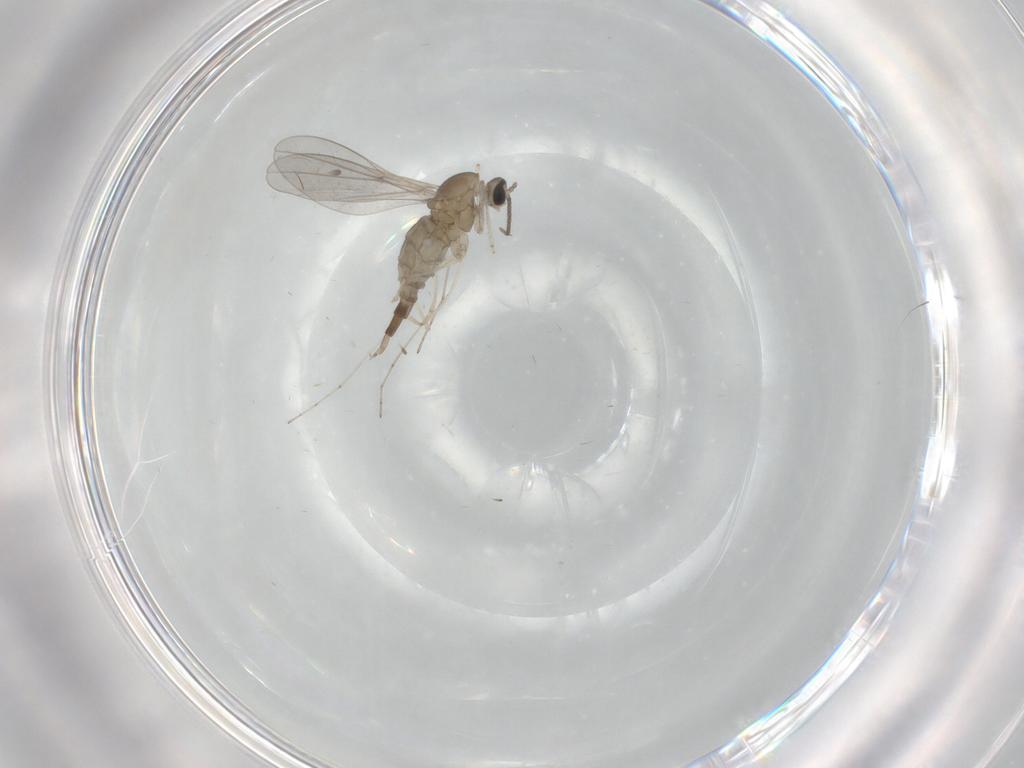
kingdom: Animalia
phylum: Arthropoda
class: Insecta
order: Diptera
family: Cecidomyiidae
